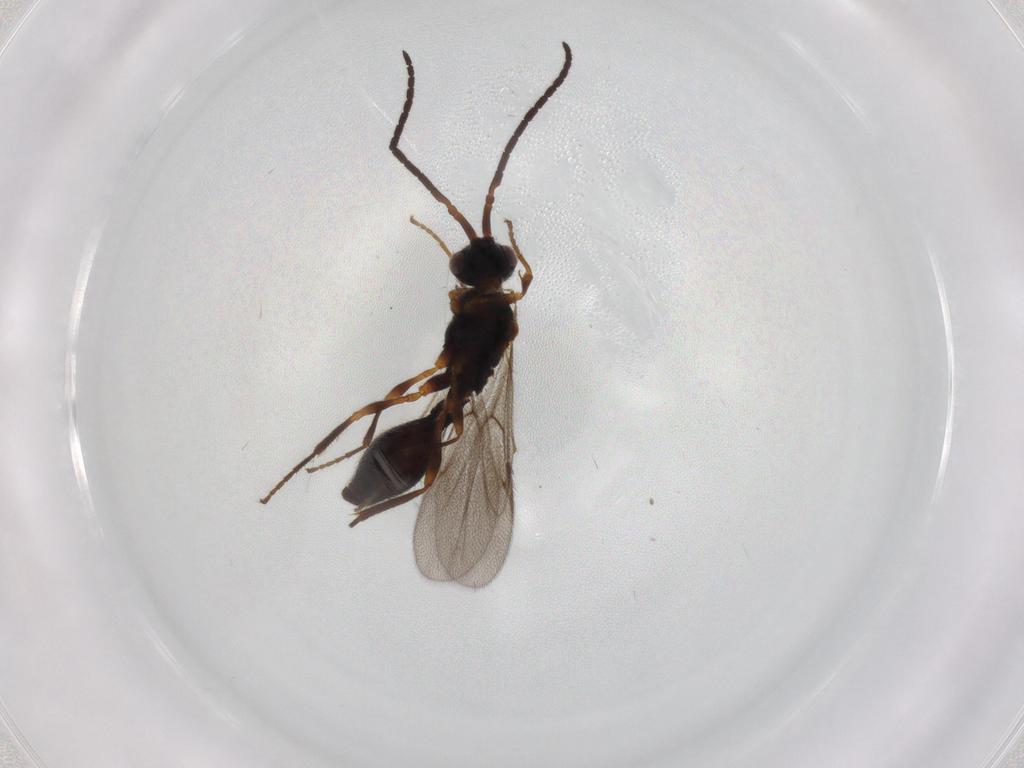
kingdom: Animalia
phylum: Arthropoda
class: Insecta
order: Hymenoptera
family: Diapriidae
